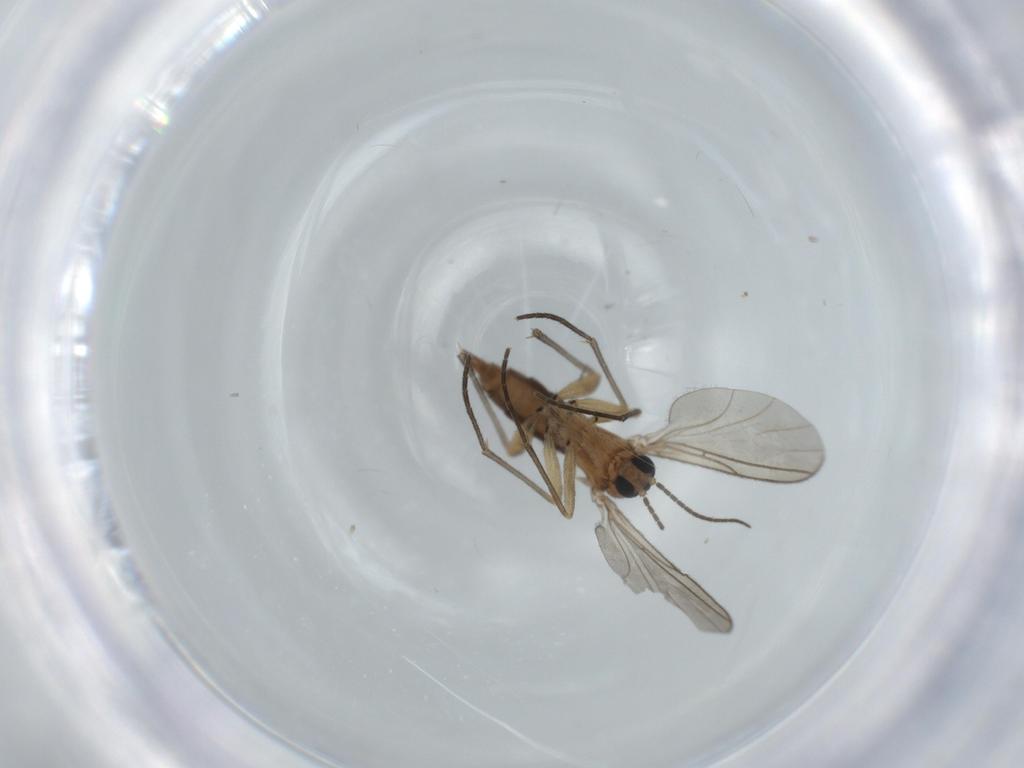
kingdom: Animalia
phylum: Arthropoda
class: Insecta
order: Diptera
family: Sciaridae
